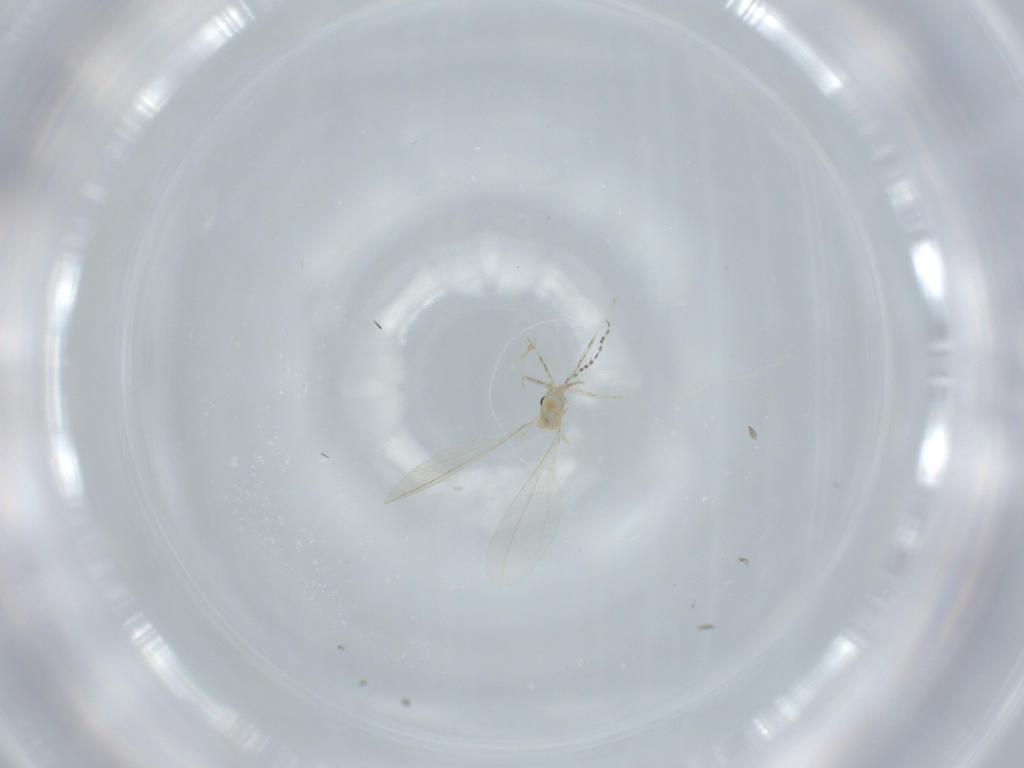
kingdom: Animalia
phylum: Arthropoda
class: Insecta
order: Diptera
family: Cecidomyiidae
